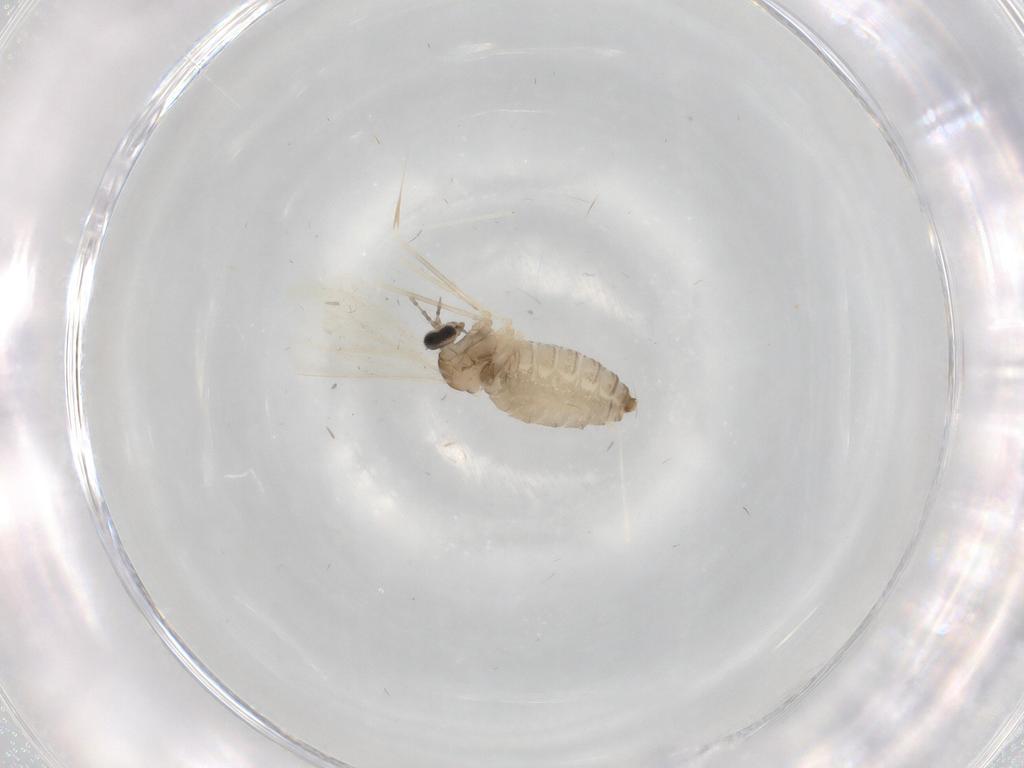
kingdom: Animalia
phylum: Arthropoda
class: Insecta
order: Diptera
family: Cecidomyiidae
